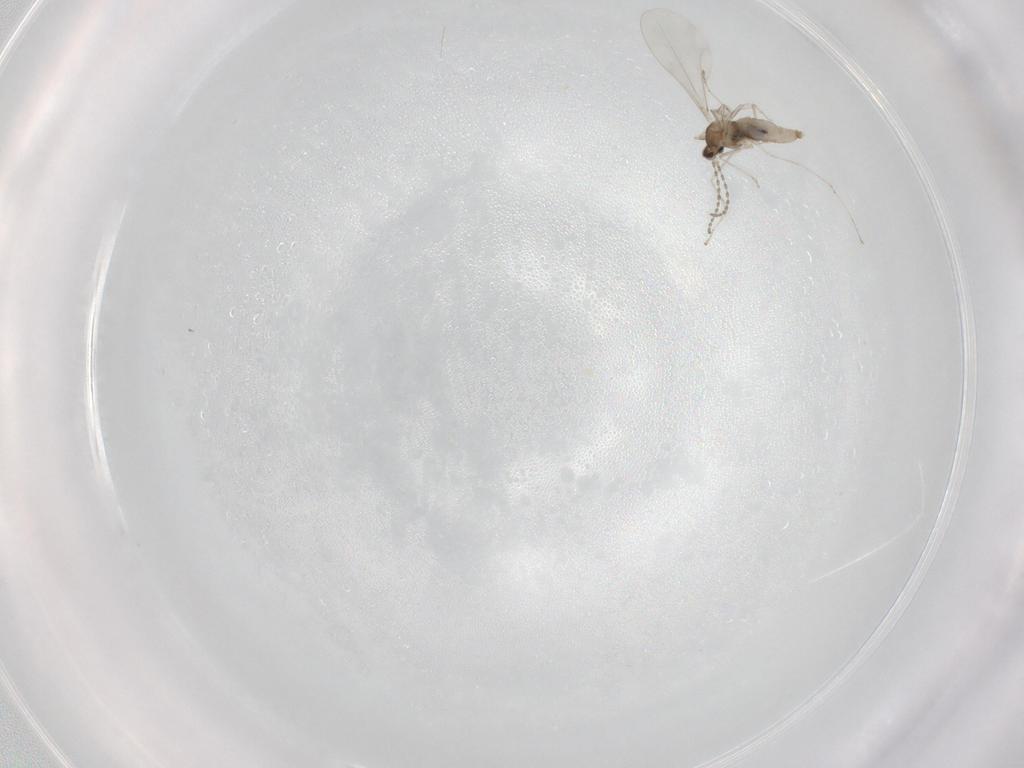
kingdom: Animalia
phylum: Arthropoda
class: Insecta
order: Diptera
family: Cecidomyiidae
